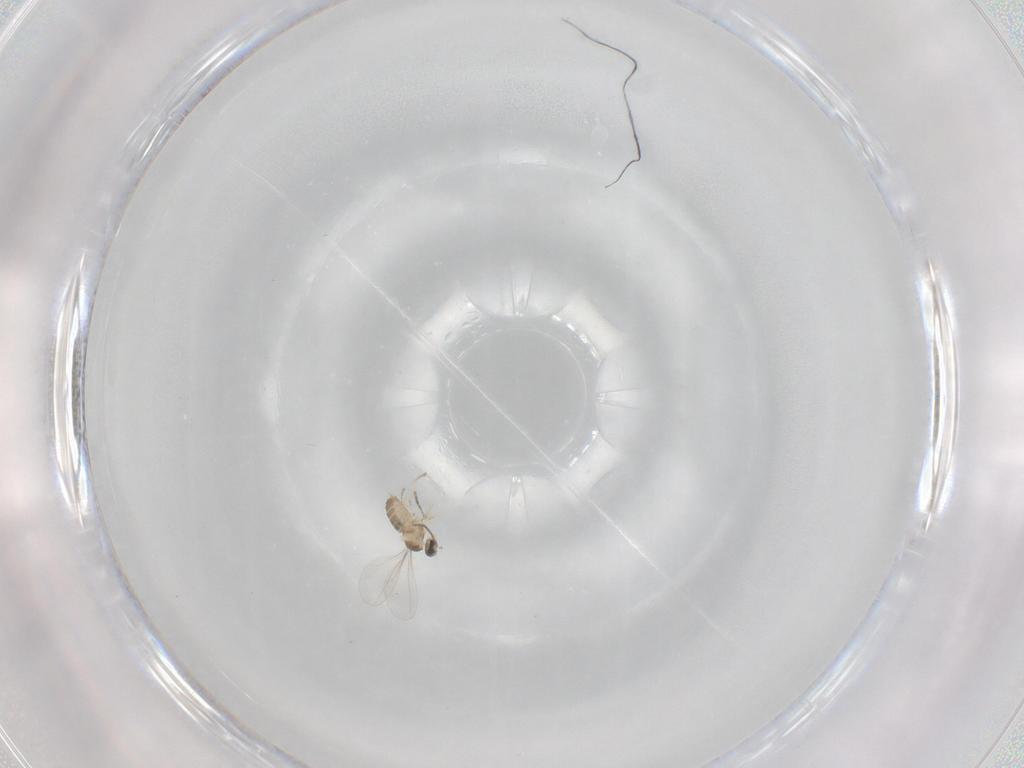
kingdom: Animalia
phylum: Arthropoda
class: Insecta
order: Diptera
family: Cecidomyiidae
